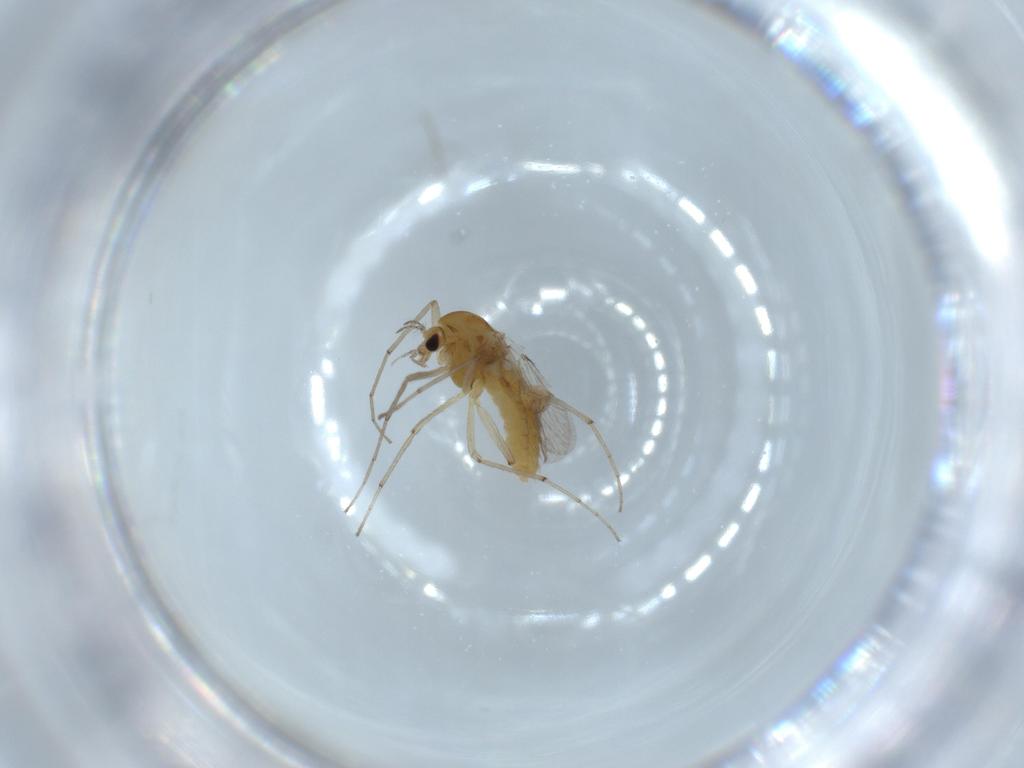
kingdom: Animalia
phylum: Arthropoda
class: Insecta
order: Diptera
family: Chironomidae
